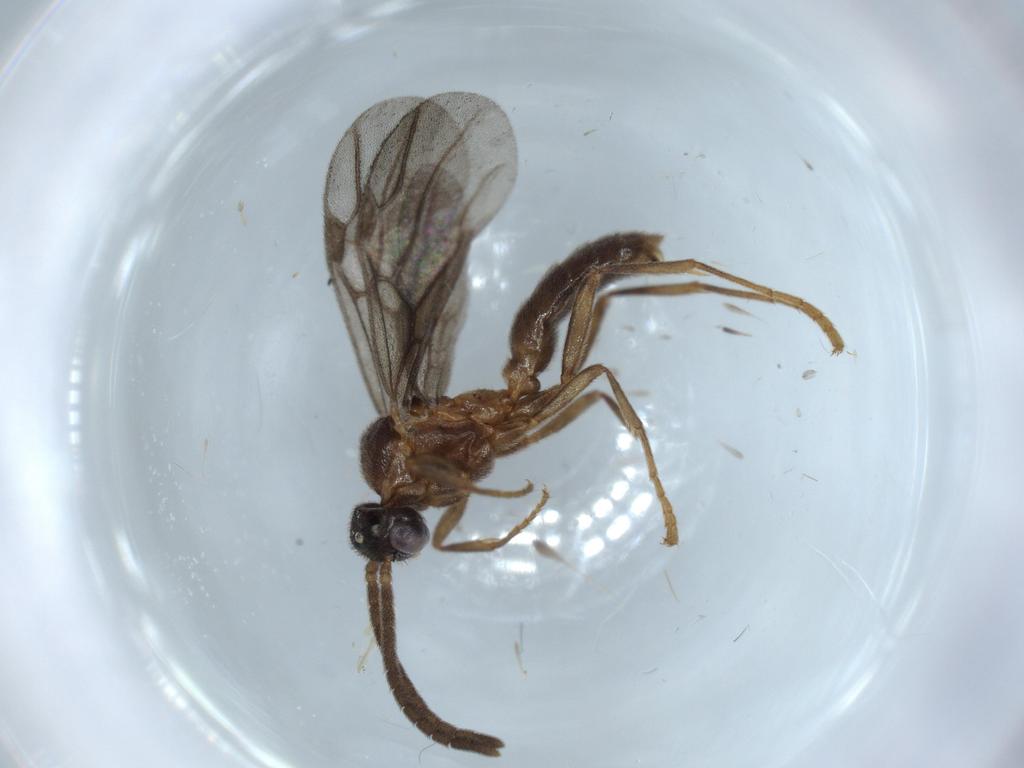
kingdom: Animalia
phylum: Arthropoda
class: Insecta
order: Hymenoptera
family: Formicidae
